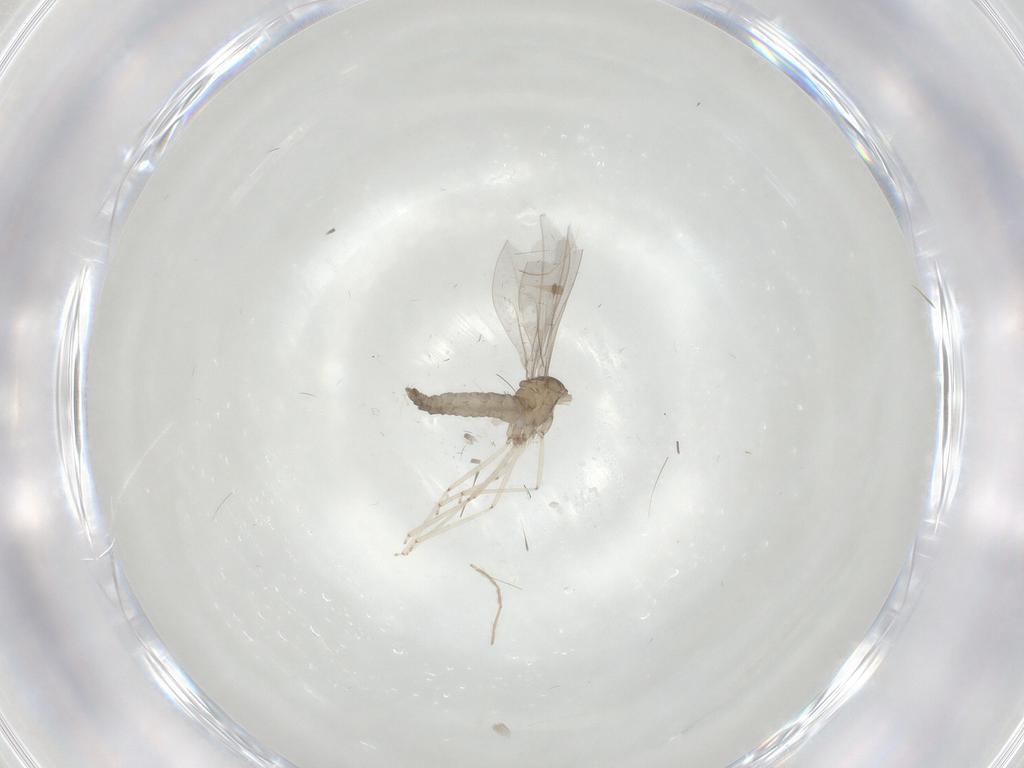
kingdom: Animalia
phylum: Arthropoda
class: Insecta
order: Diptera
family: Chironomidae
